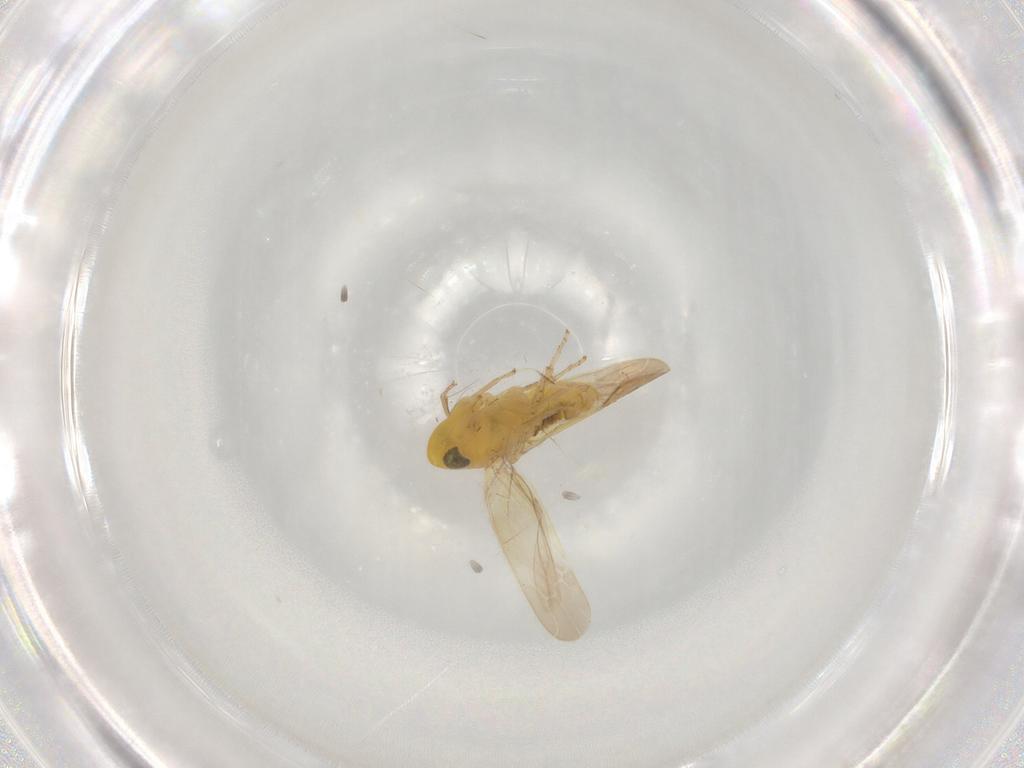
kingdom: Animalia
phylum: Arthropoda
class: Insecta
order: Hemiptera
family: Cicadellidae
